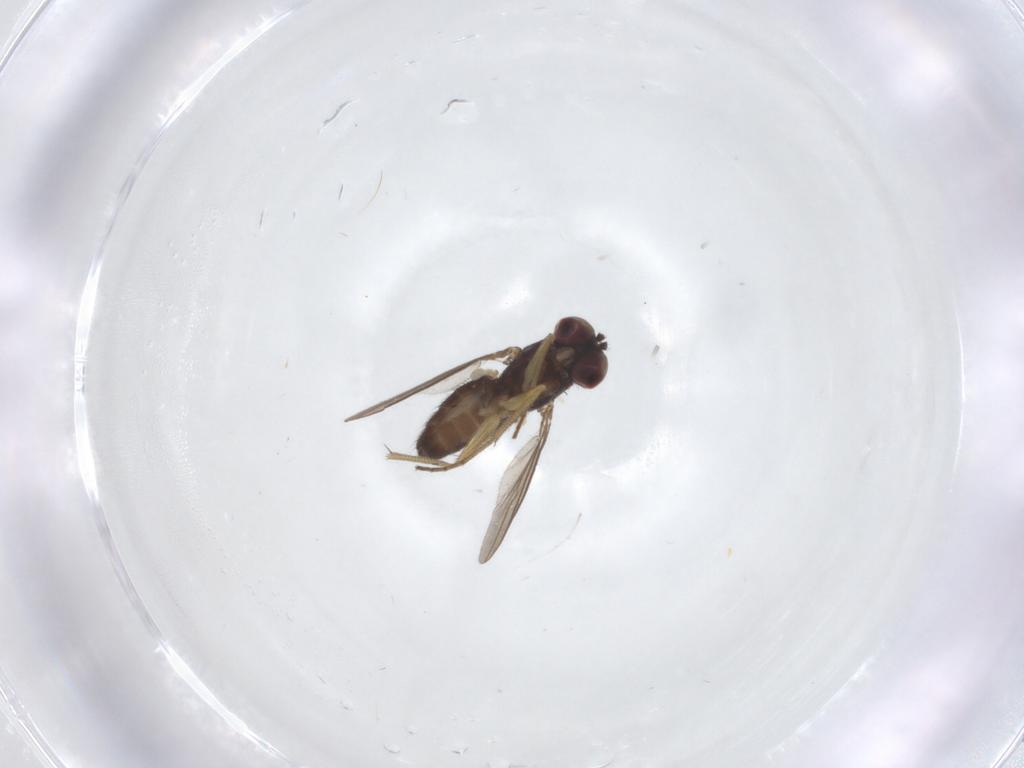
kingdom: Animalia
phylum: Arthropoda
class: Insecta
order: Diptera
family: Dolichopodidae
